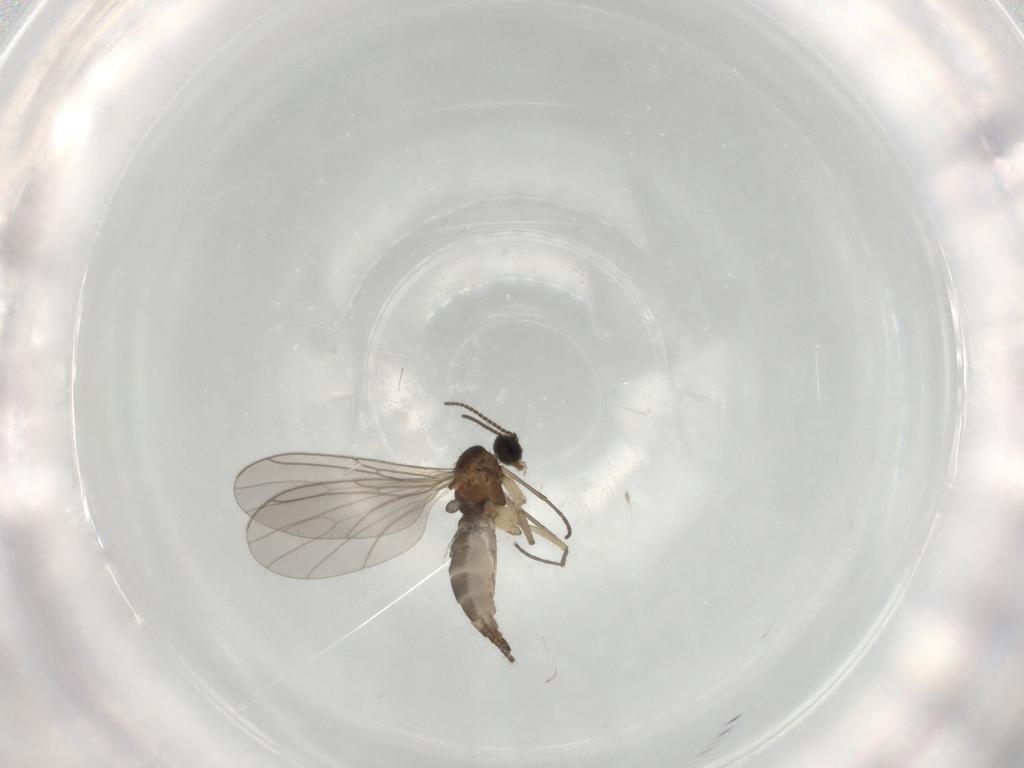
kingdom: Animalia
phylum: Arthropoda
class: Insecta
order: Diptera
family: Sciaridae
